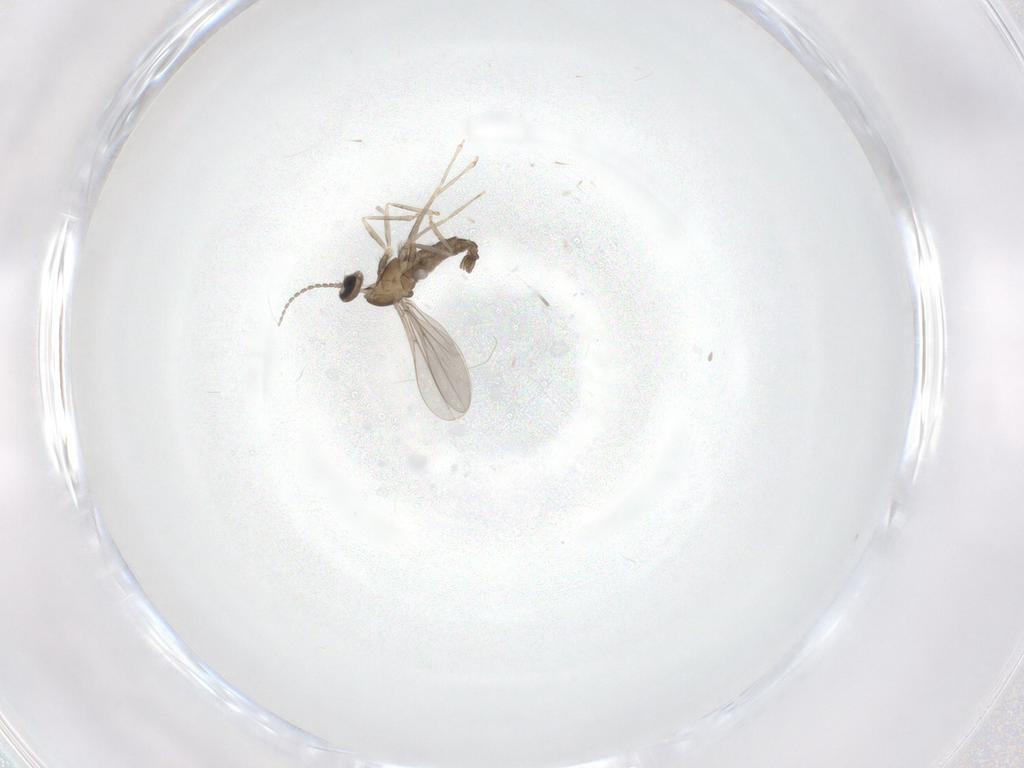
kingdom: Animalia
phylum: Arthropoda
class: Insecta
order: Diptera
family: Cecidomyiidae
